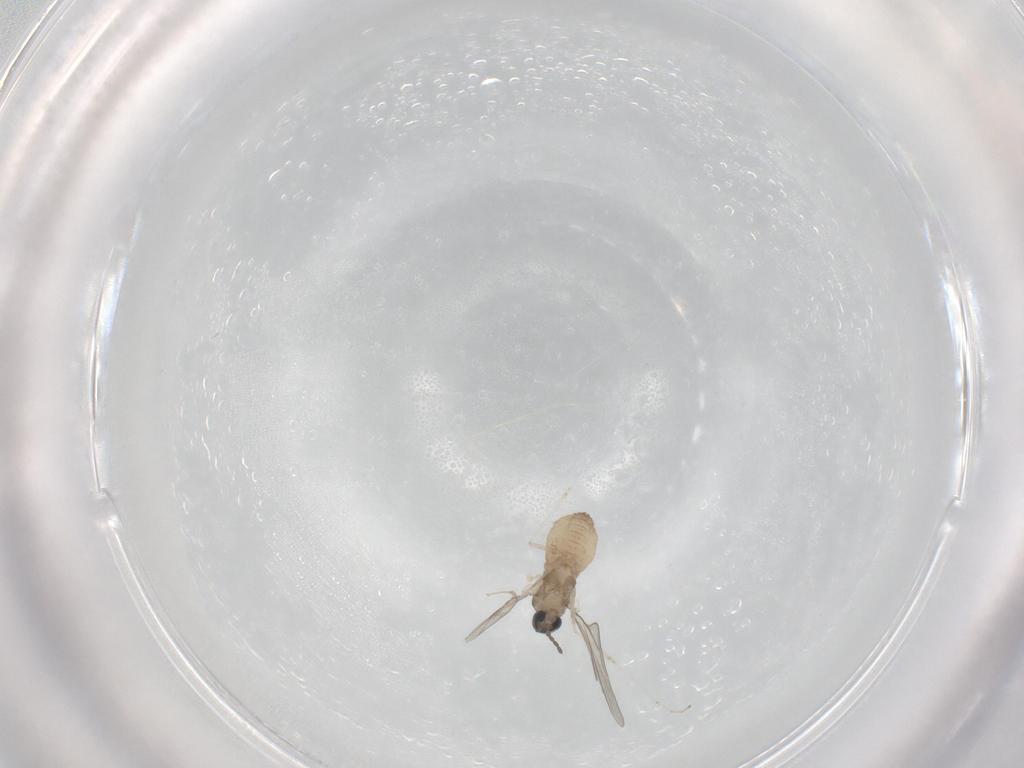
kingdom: Animalia
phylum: Arthropoda
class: Insecta
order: Diptera
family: Cecidomyiidae
